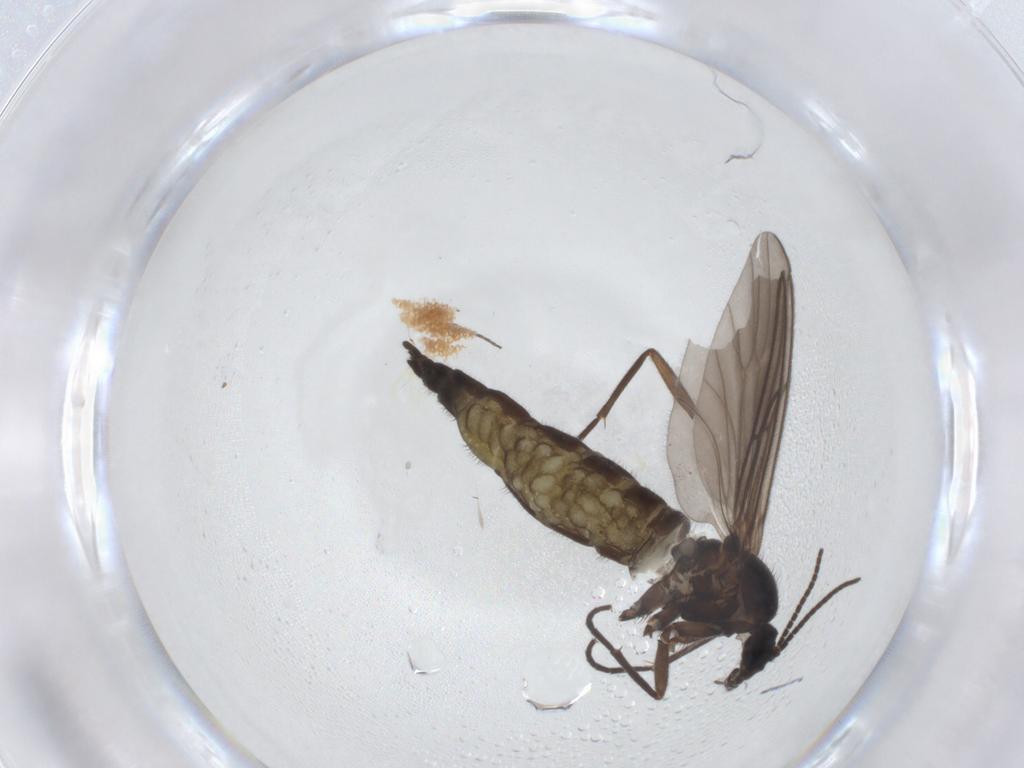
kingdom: Animalia
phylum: Arthropoda
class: Insecta
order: Diptera
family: Sciaridae
